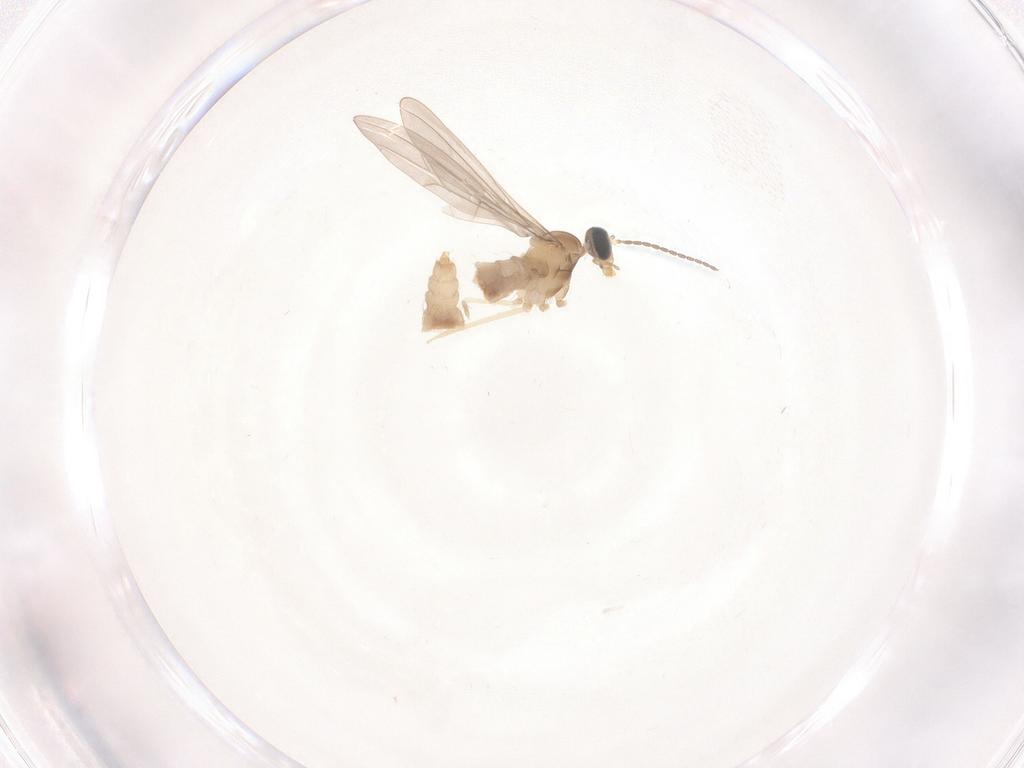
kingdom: Animalia
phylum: Arthropoda
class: Insecta
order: Diptera
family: Cecidomyiidae
